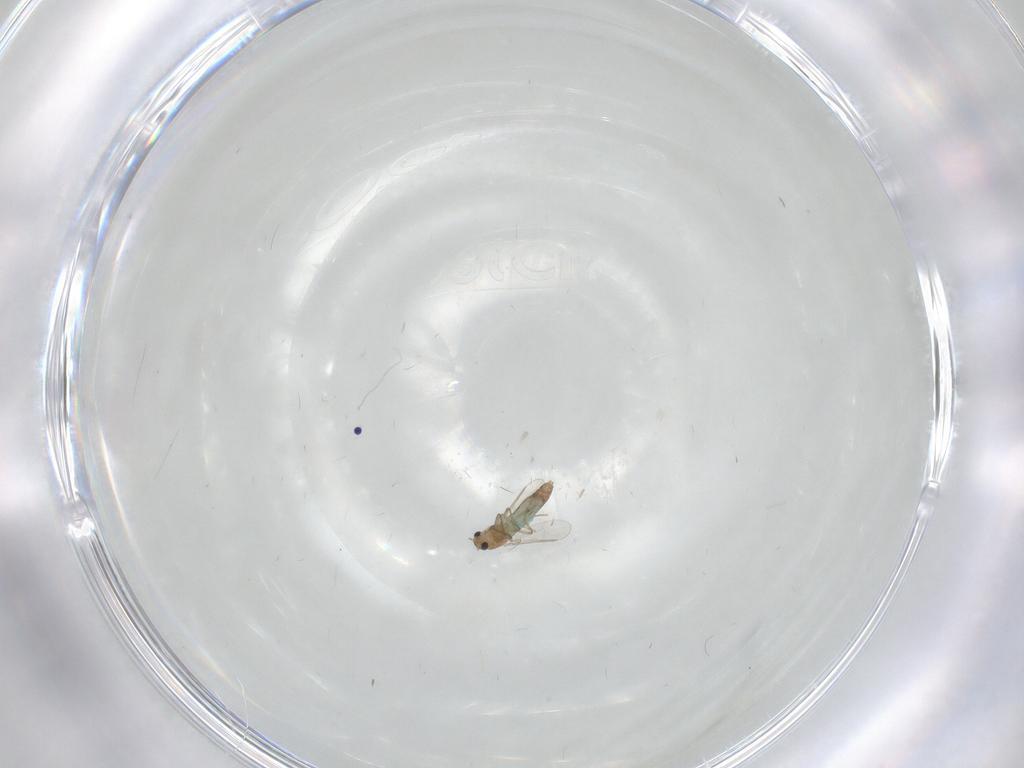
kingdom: Animalia
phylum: Arthropoda
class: Insecta
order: Diptera
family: Chironomidae
